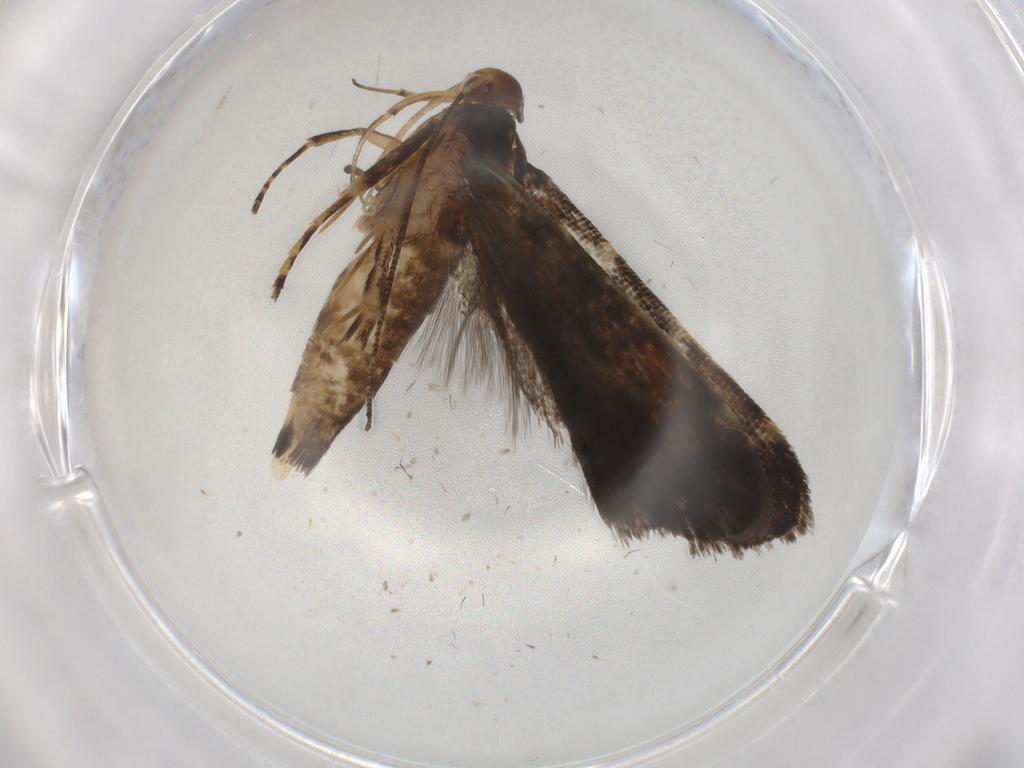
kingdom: Animalia
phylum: Arthropoda
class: Insecta
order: Lepidoptera
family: Gelechiidae
